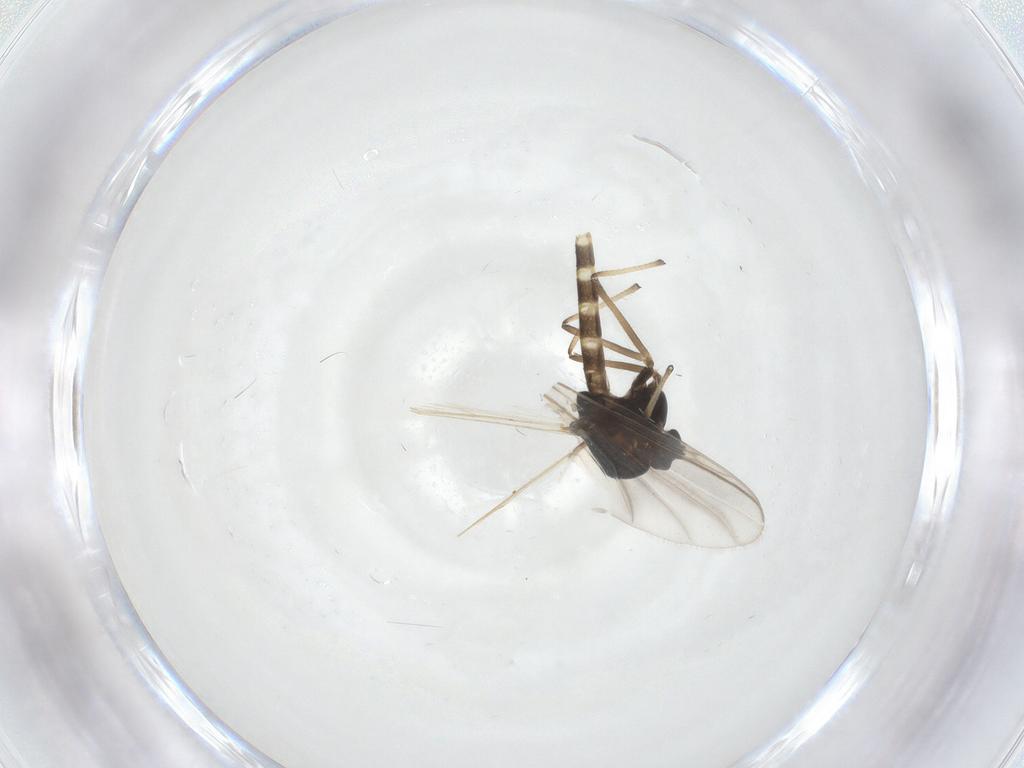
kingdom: Animalia
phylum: Arthropoda
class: Insecta
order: Diptera
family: Chironomidae
